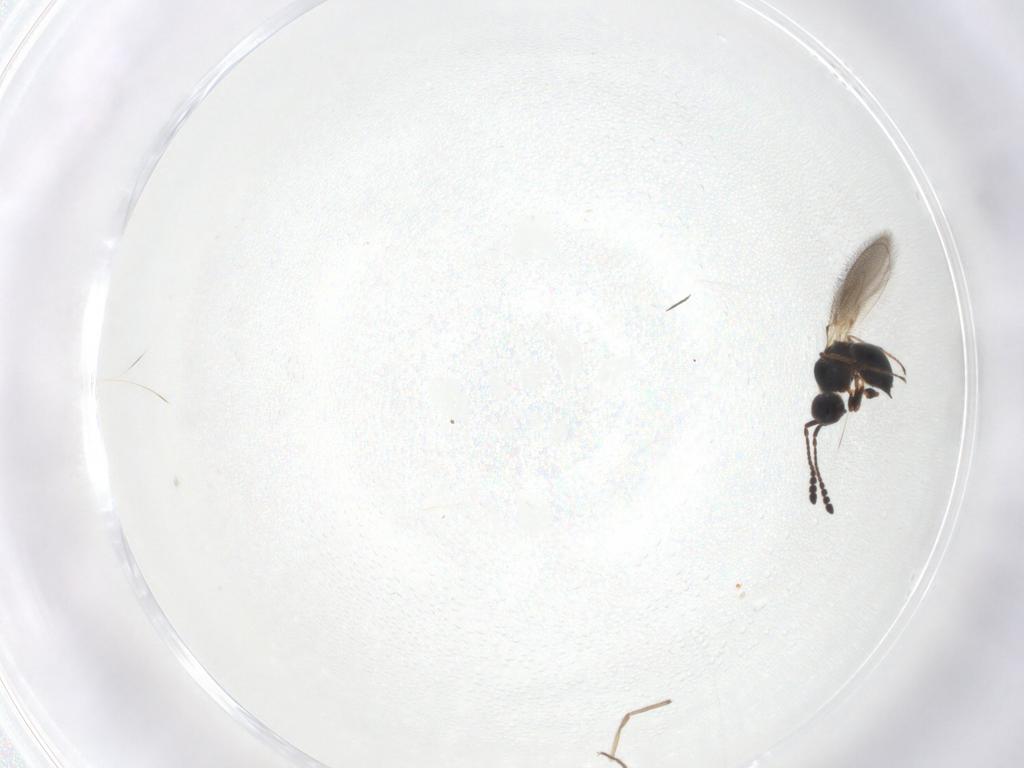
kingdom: Animalia
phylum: Arthropoda
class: Insecta
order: Hymenoptera
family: Diapriidae
